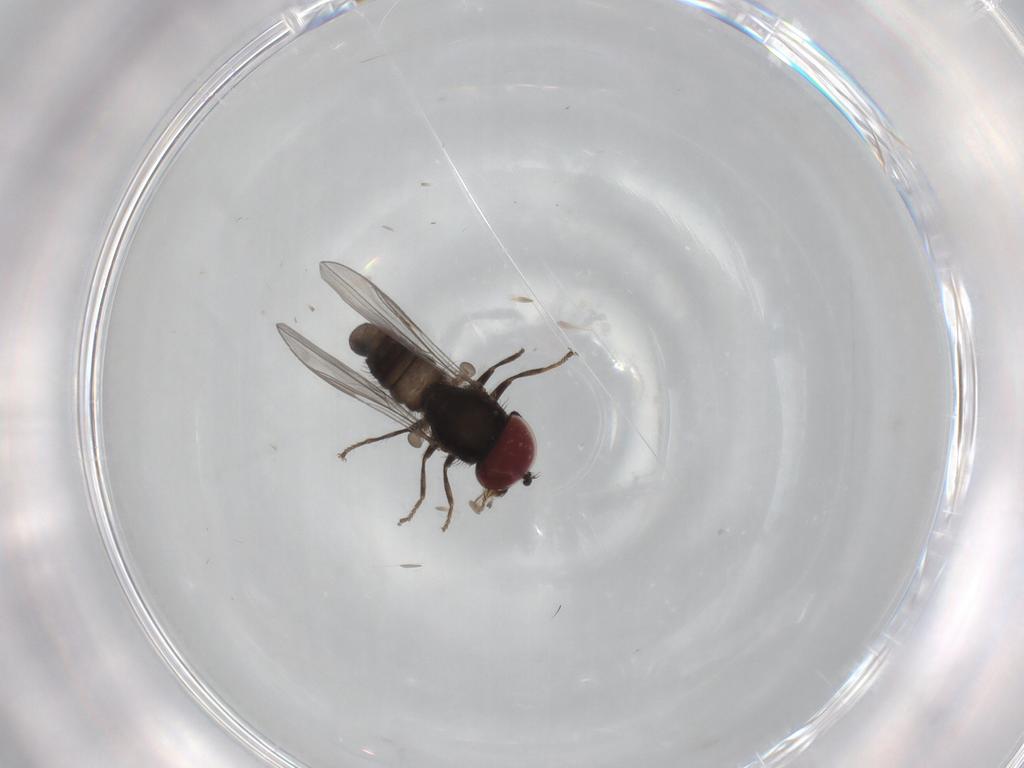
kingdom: Animalia
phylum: Arthropoda
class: Insecta
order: Diptera
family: Pipunculidae
